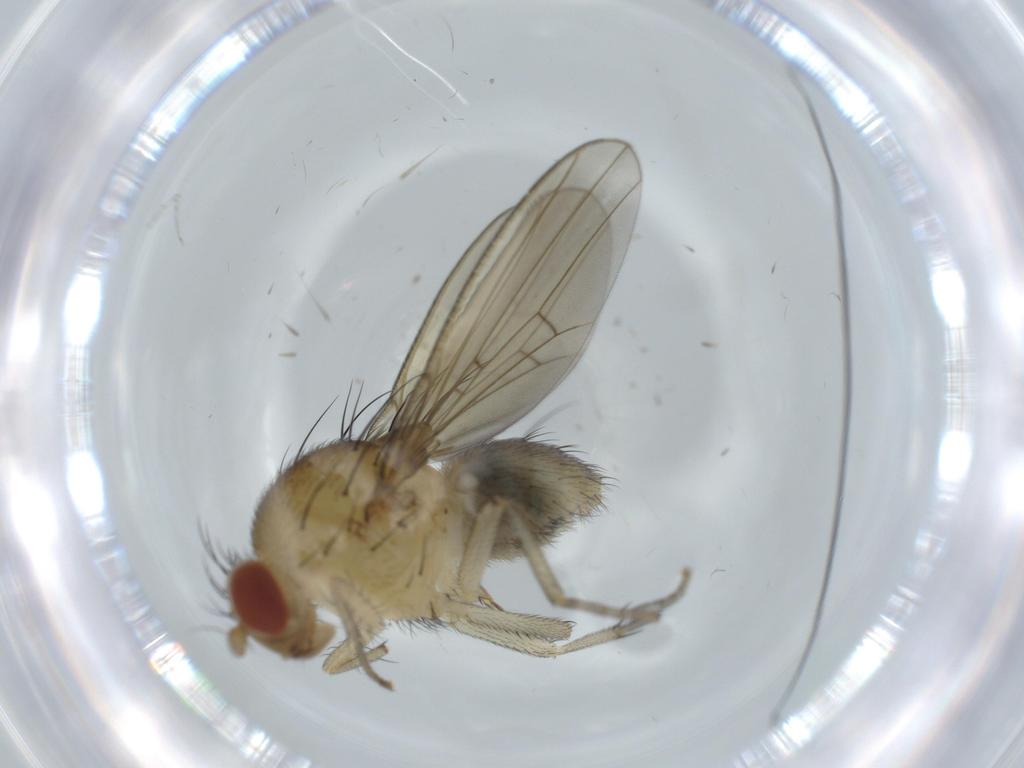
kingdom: Animalia
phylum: Arthropoda
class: Insecta
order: Diptera
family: Cecidomyiidae
